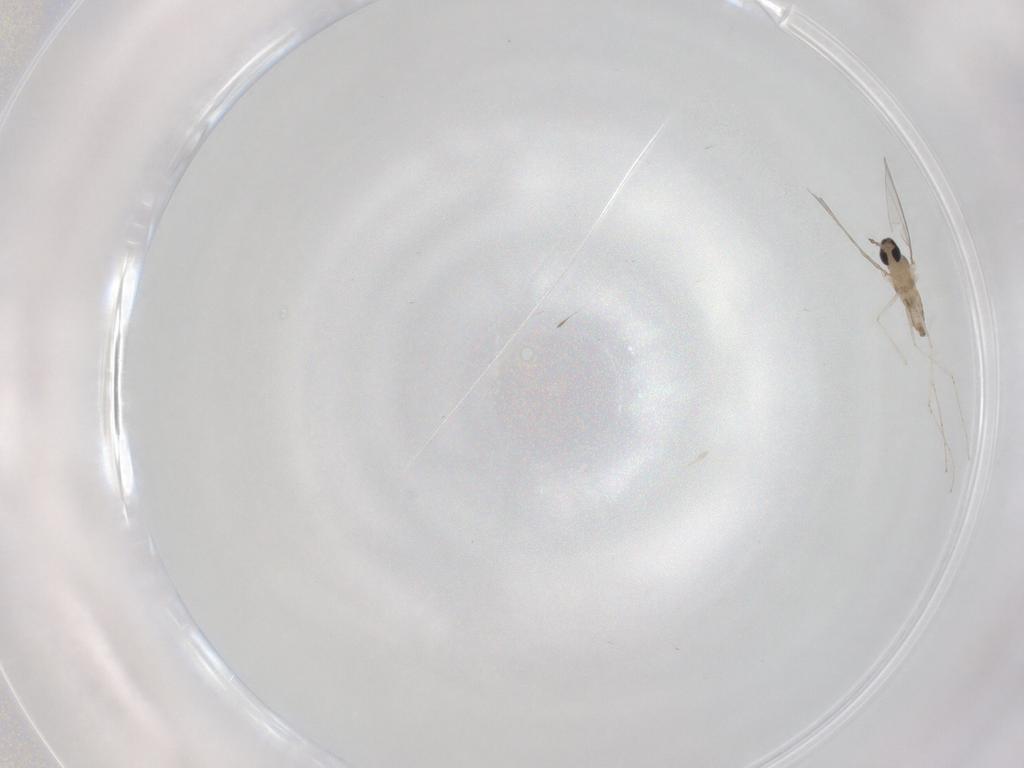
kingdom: Animalia
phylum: Arthropoda
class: Insecta
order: Diptera
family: Cecidomyiidae
